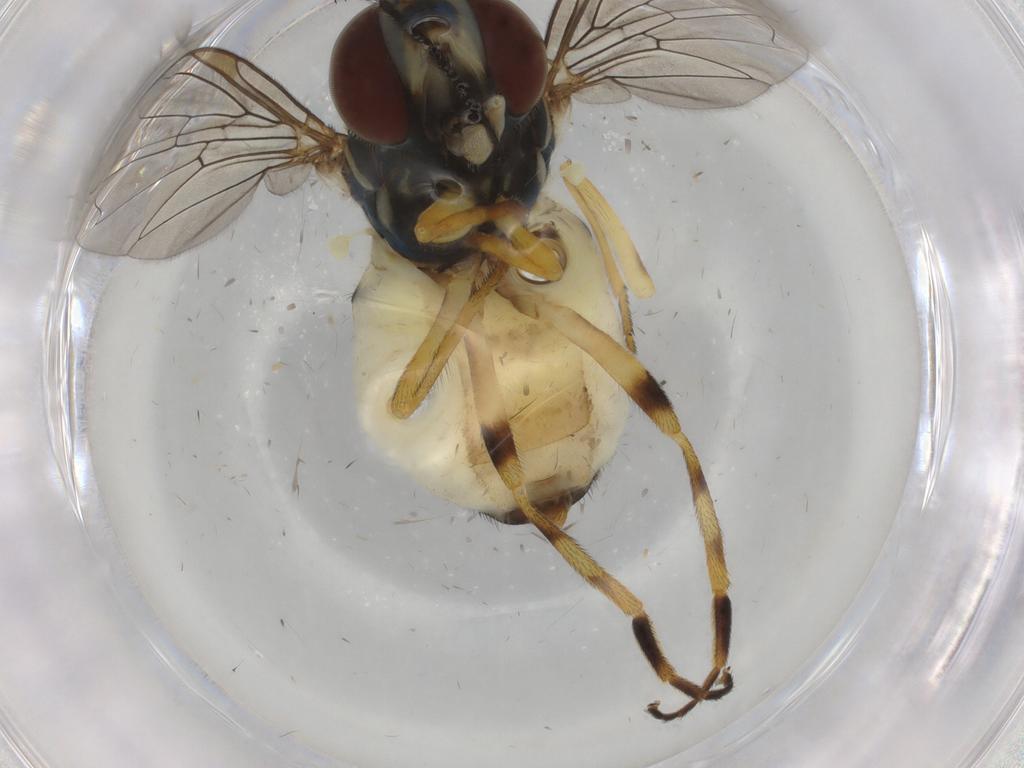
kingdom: Animalia
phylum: Arthropoda
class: Insecta
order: Diptera
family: Syrphidae
